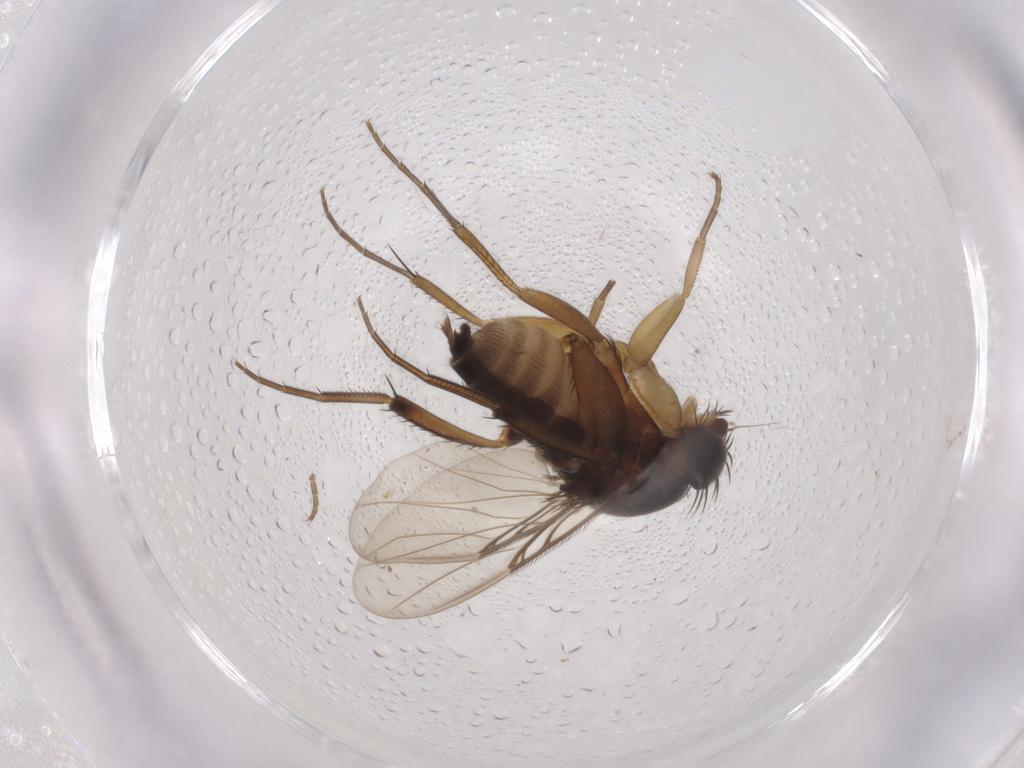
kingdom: Animalia
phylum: Arthropoda
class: Insecta
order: Diptera
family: Phoridae
